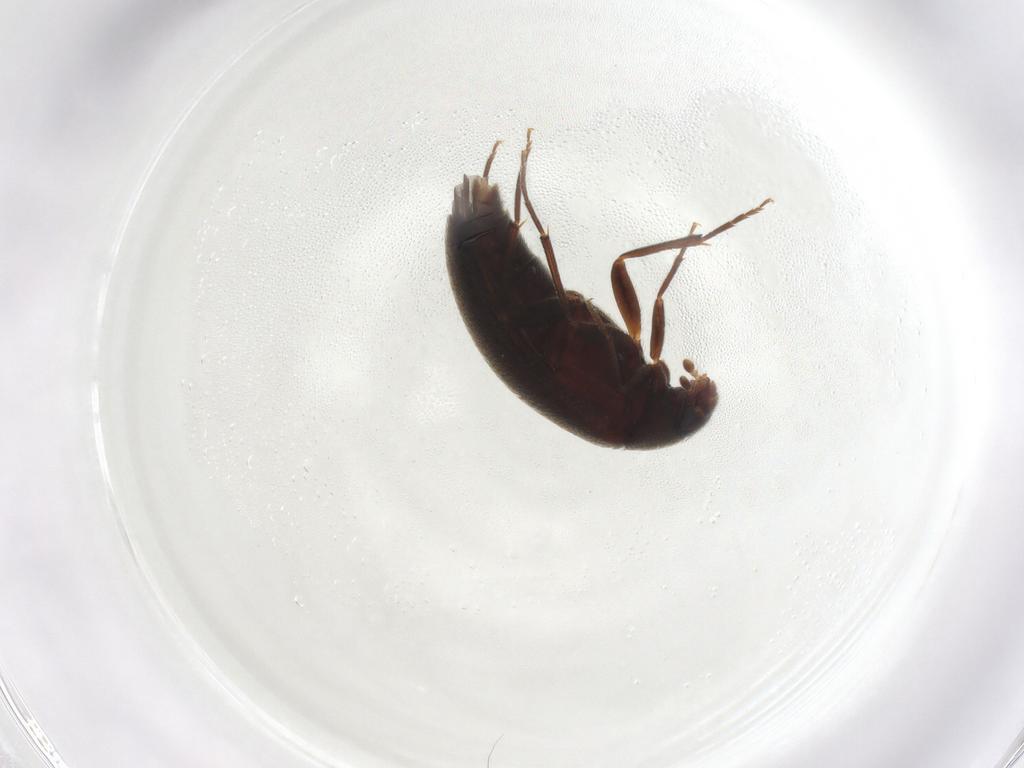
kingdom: Animalia
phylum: Arthropoda
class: Insecta
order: Coleoptera
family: Melandryidae
